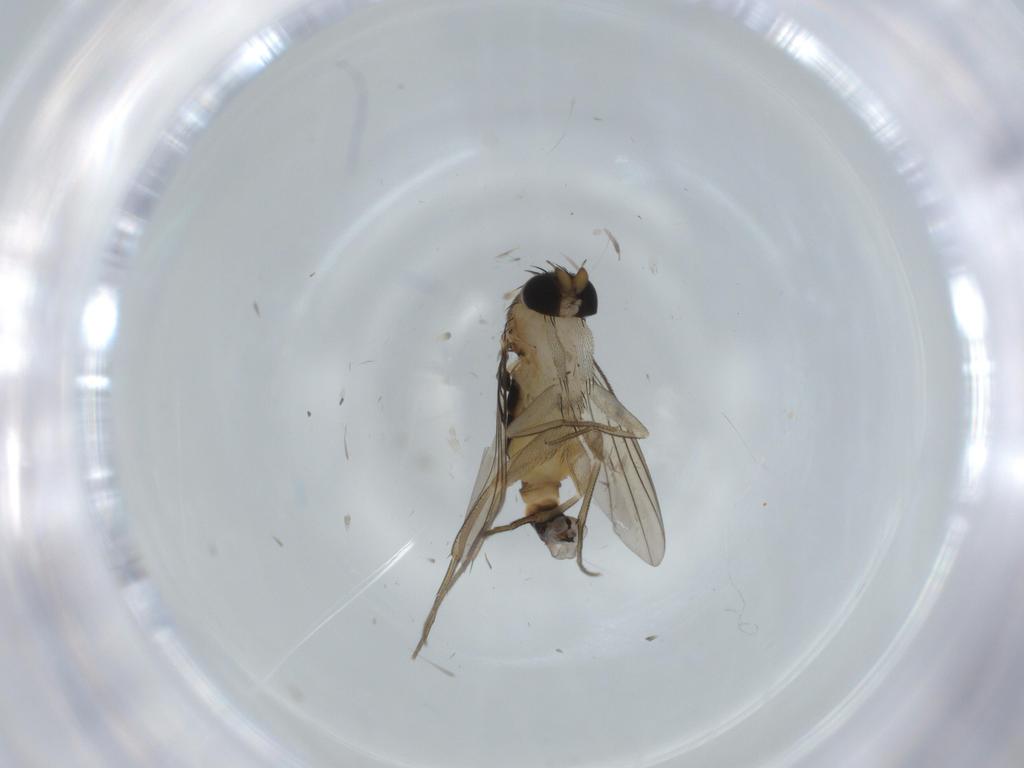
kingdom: Animalia
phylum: Arthropoda
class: Insecta
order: Diptera
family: Phoridae
